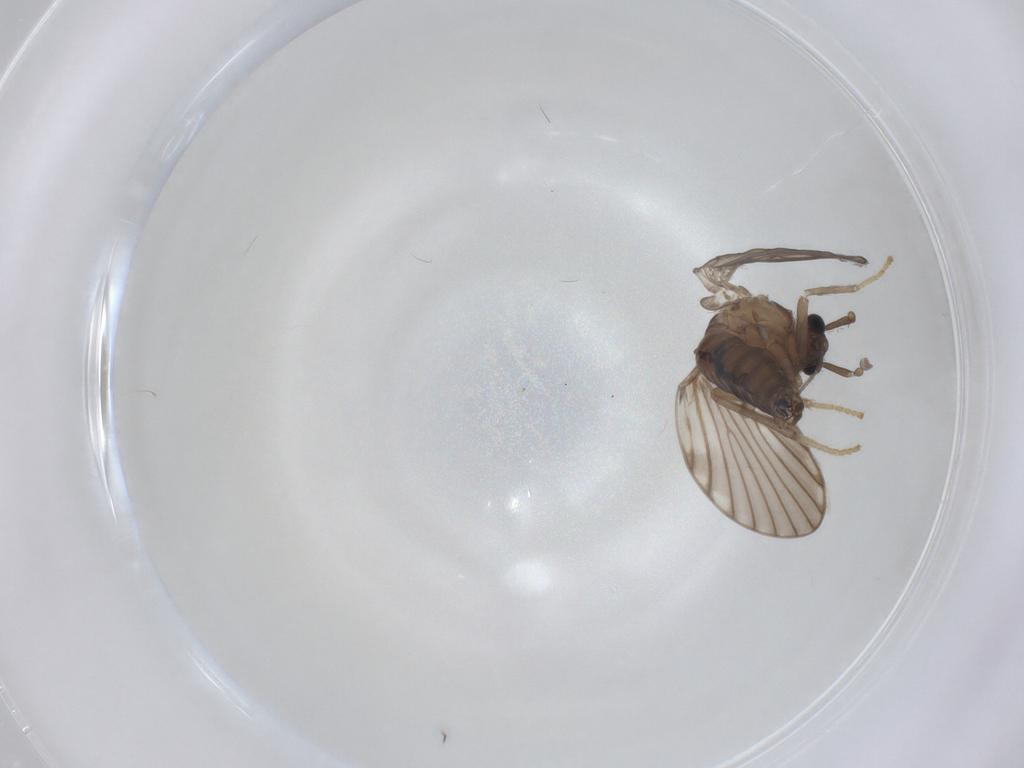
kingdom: Animalia
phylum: Arthropoda
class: Insecta
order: Diptera
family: Psychodidae
